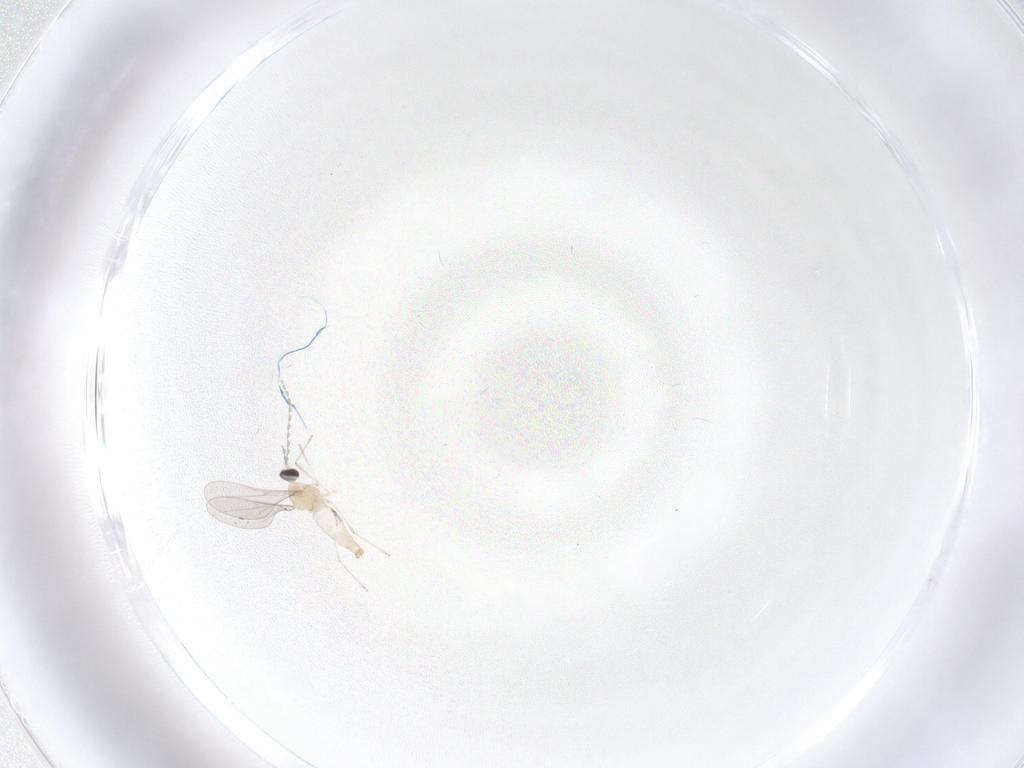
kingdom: Animalia
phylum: Arthropoda
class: Insecta
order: Diptera
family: Cecidomyiidae
